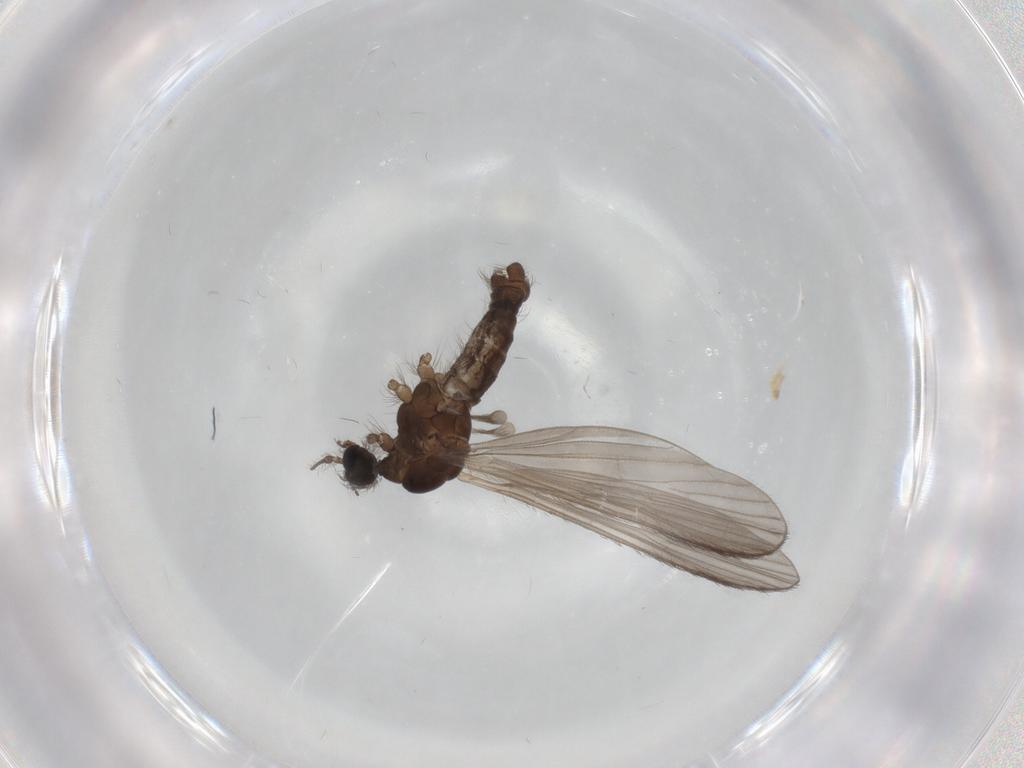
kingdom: Animalia
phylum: Arthropoda
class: Insecta
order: Diptera
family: Limoniidae
